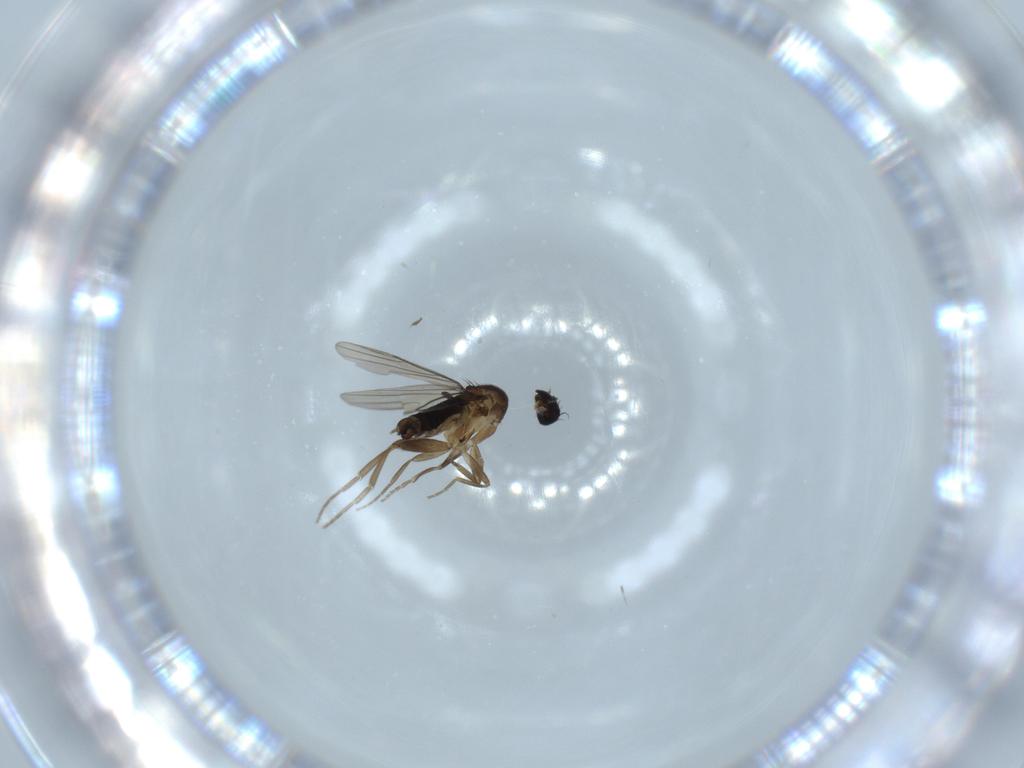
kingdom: Animalia
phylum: Arthropoda
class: Insecta
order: Diptera
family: Phoridae
